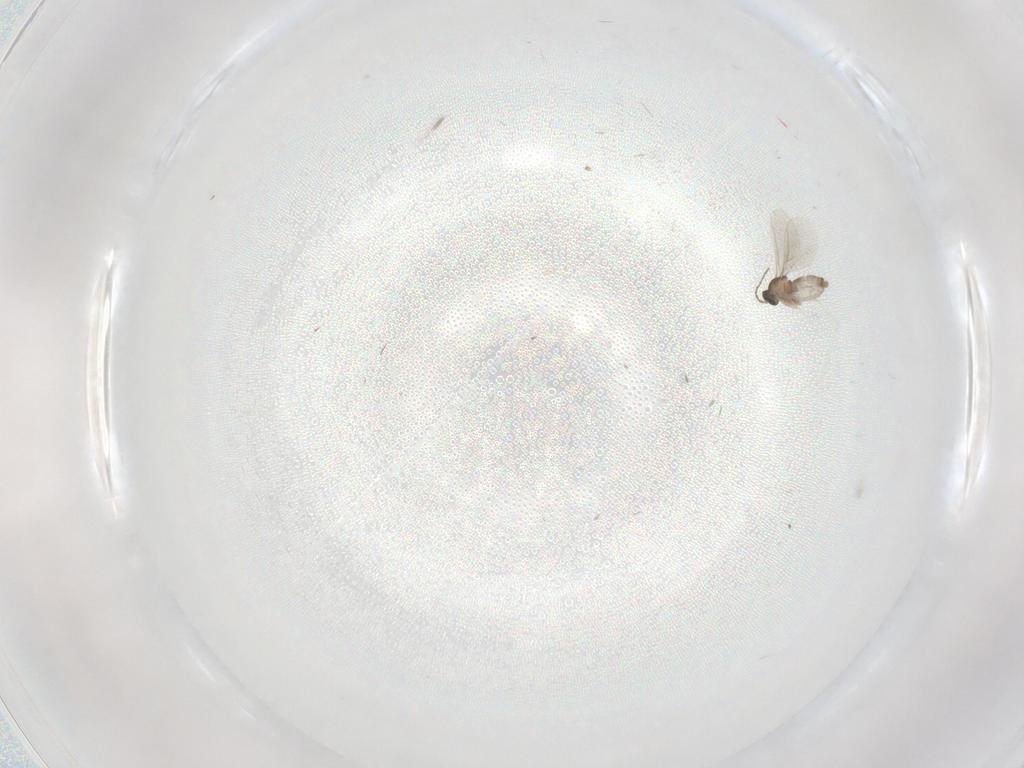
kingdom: Animalia
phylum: Arthropoda
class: Insecta
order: Diptera
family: Cecidomyiidae
